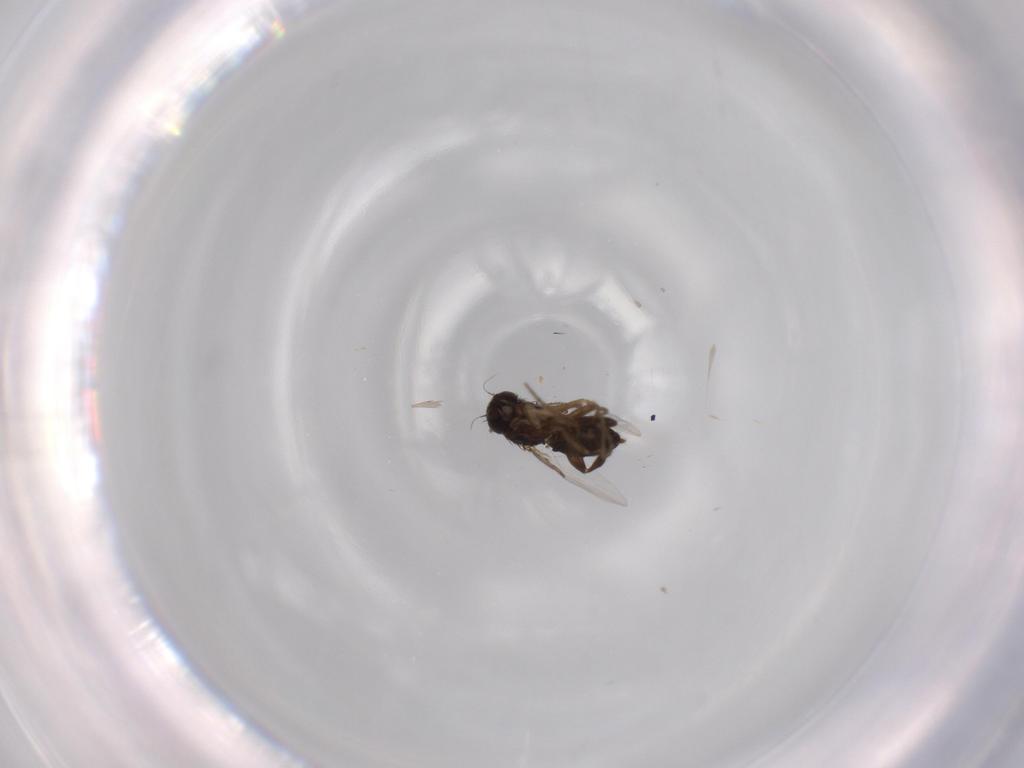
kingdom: Animalia
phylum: Arthropoda
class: Insecta
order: Diptera
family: Phoridae
